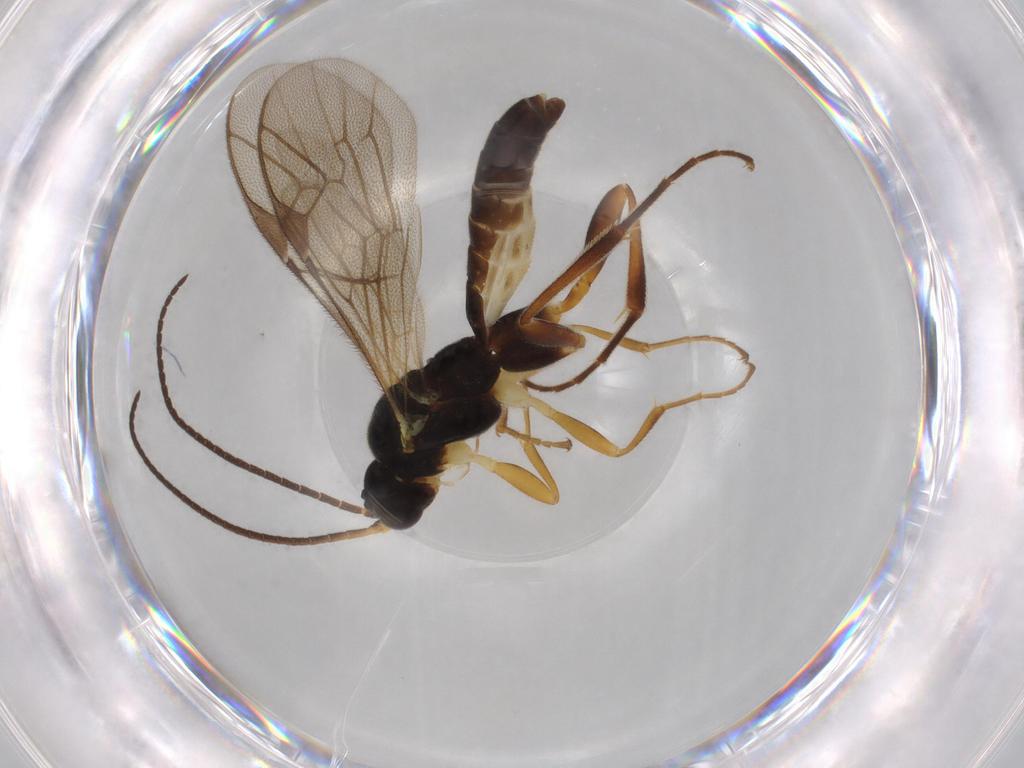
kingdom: Animalia
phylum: Arthropoda
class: Insecta
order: Hymenoptera
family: Ichneumonidae
